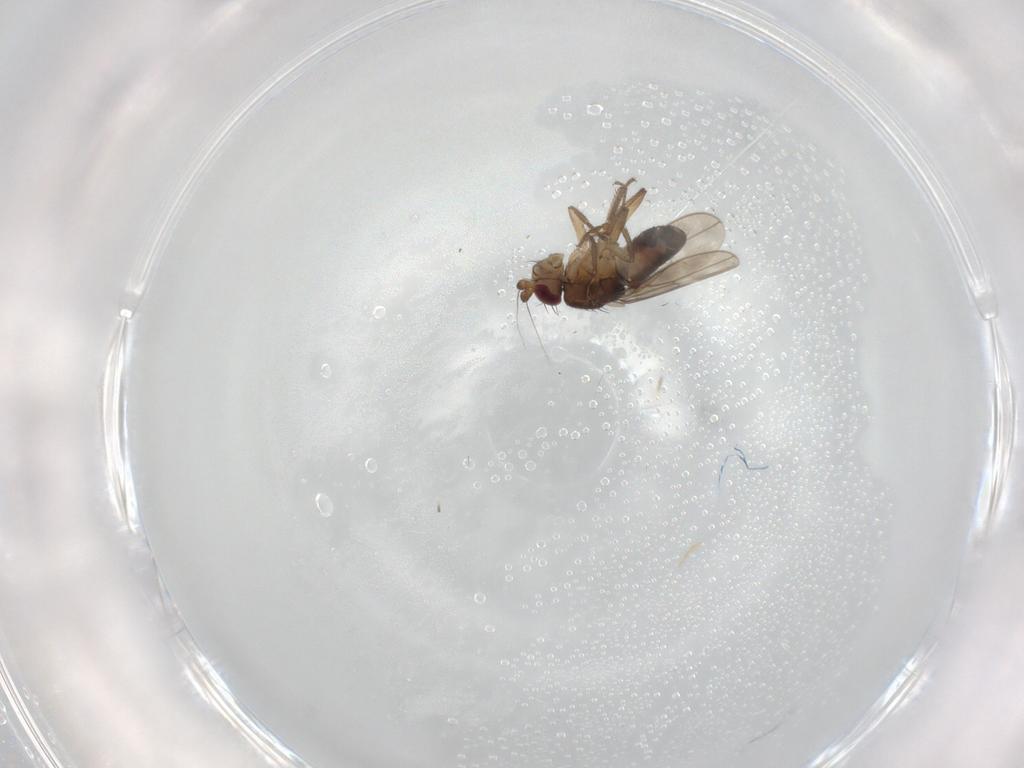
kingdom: Animalia
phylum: Arthropoda
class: Insecta
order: Diptera
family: Sphaeroceridae
